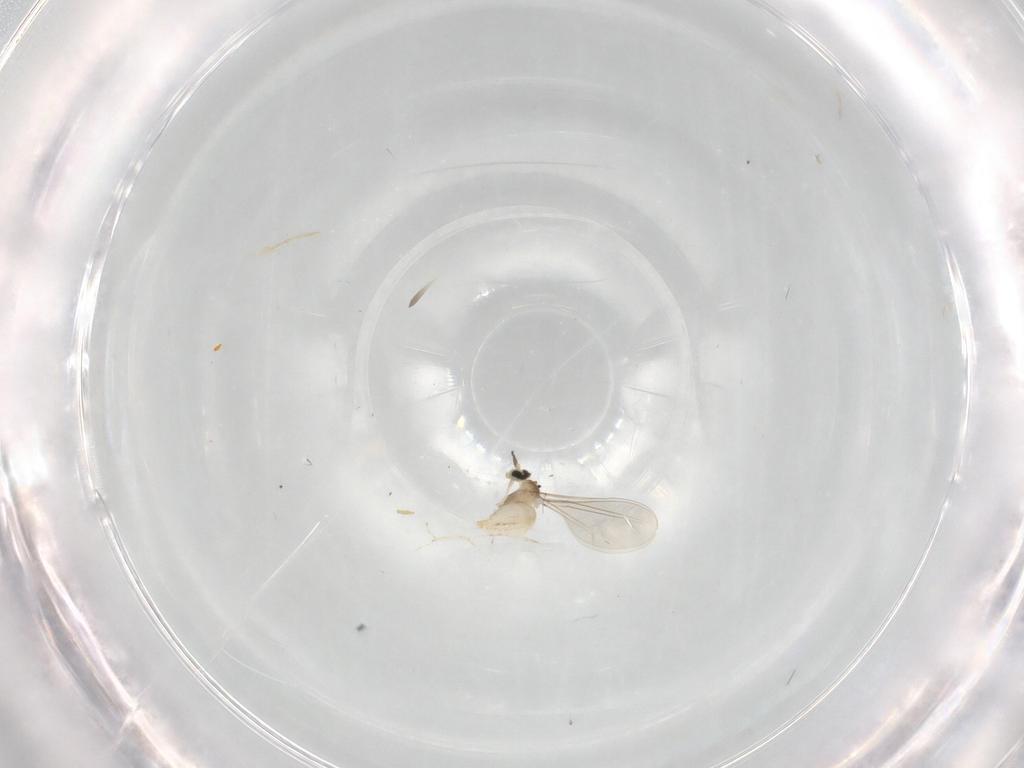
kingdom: Animalia
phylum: Arthropoda
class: Insecta
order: Diptera
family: Cecidomyiidae
